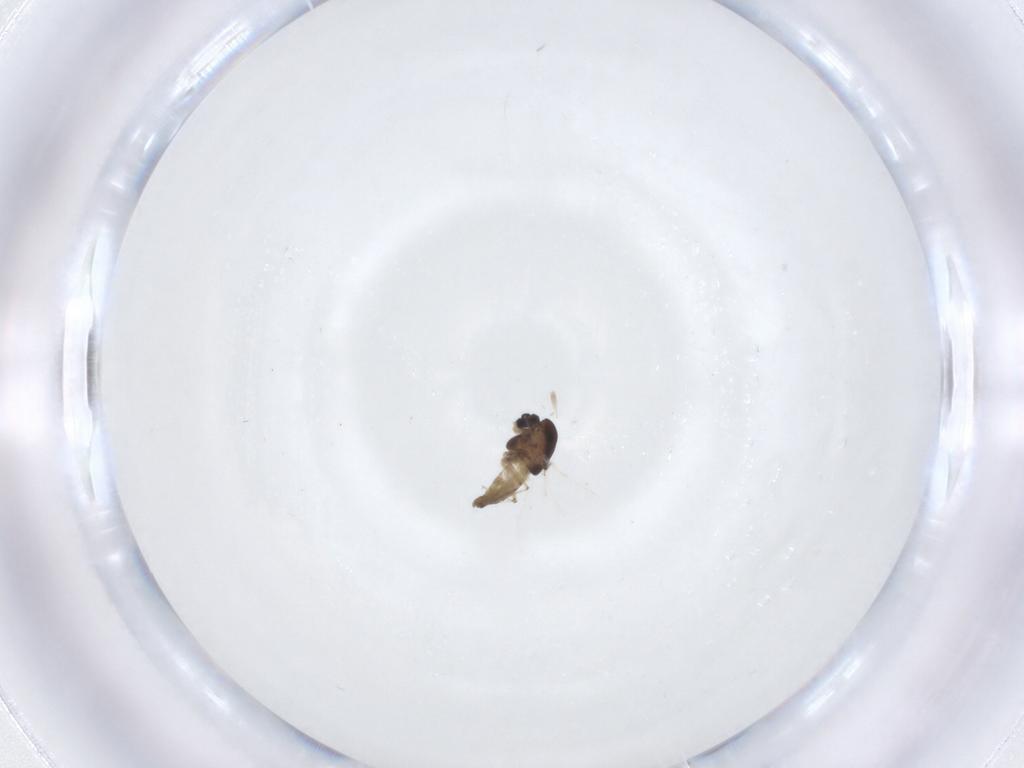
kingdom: Animalia
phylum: Arthropoda
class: Insecta
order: Diptera
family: Chironomidae
